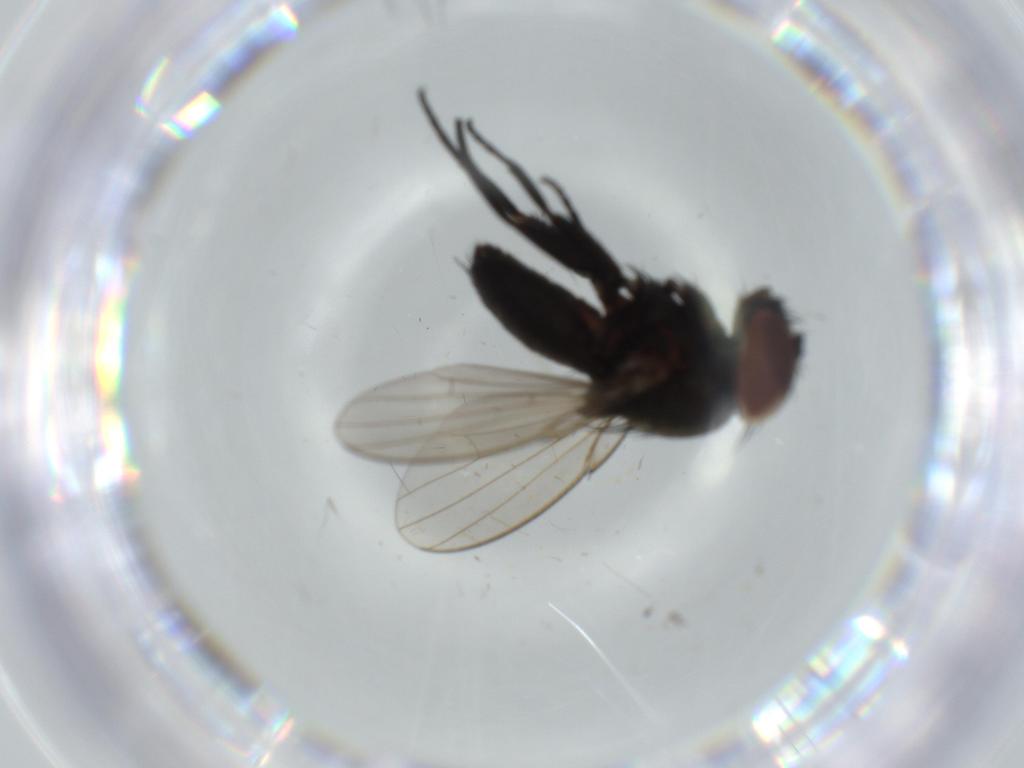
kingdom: Animalia
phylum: Arthropoda
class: Insecta
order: Diptera
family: Milichiidae
